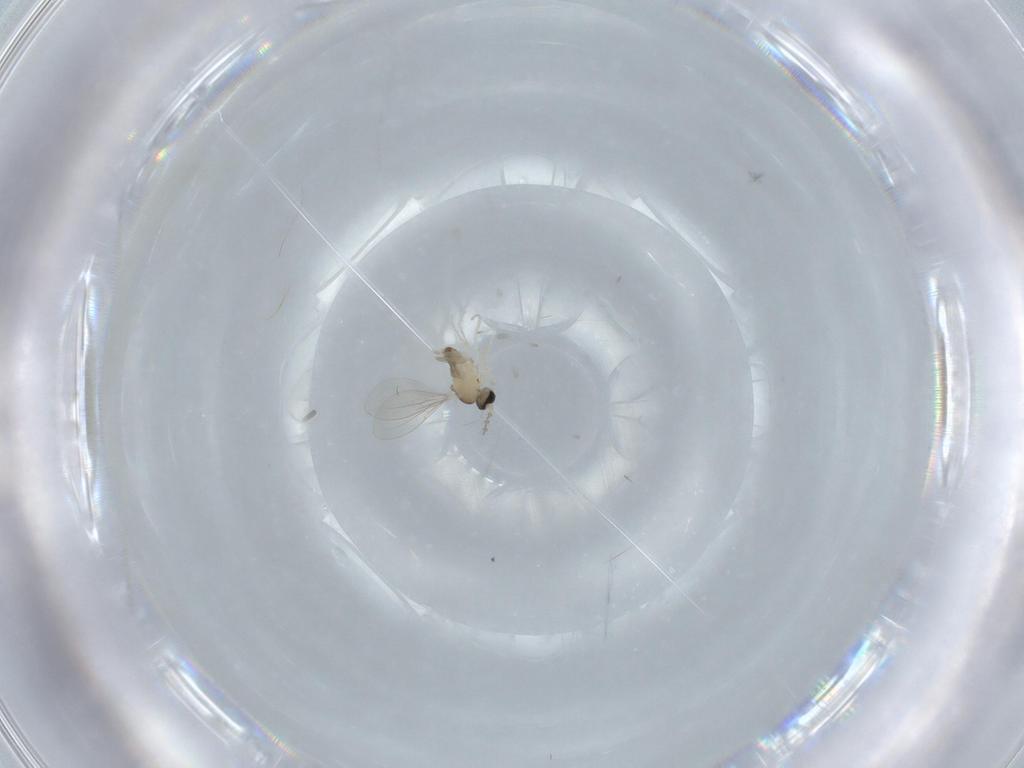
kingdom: Animalia
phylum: Arthropoda
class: Insecta
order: Diptera
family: Cecidomyiidae
